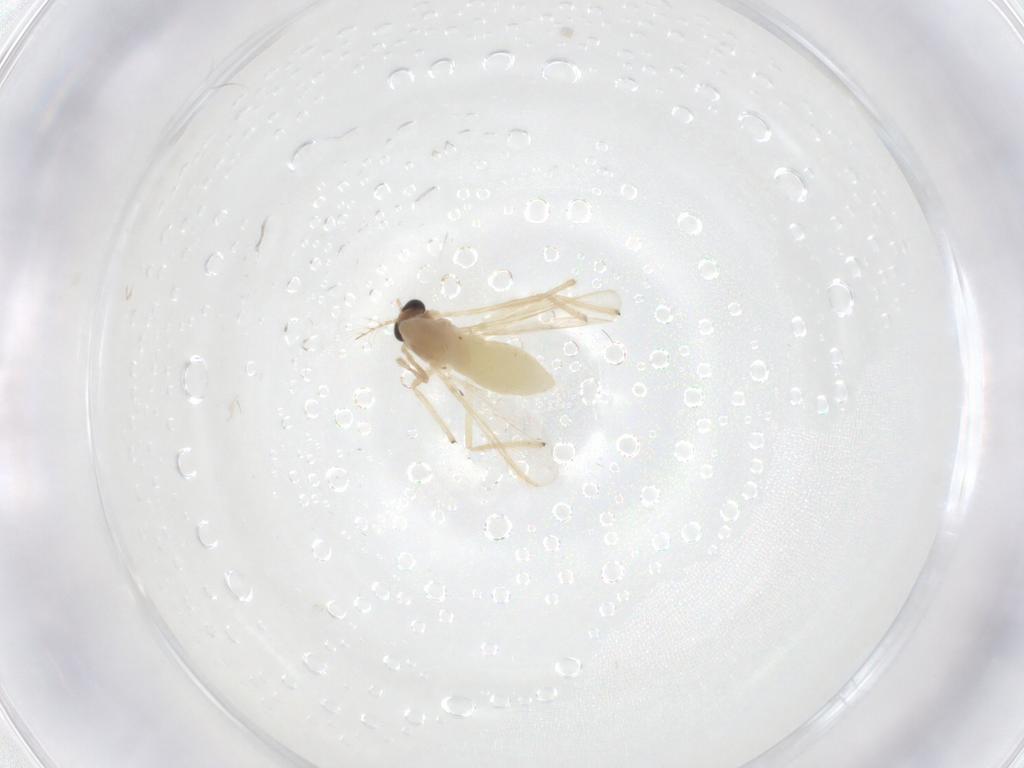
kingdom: Animalia
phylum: Arthropoda
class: Insecta
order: Diptera
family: Chironomidae
